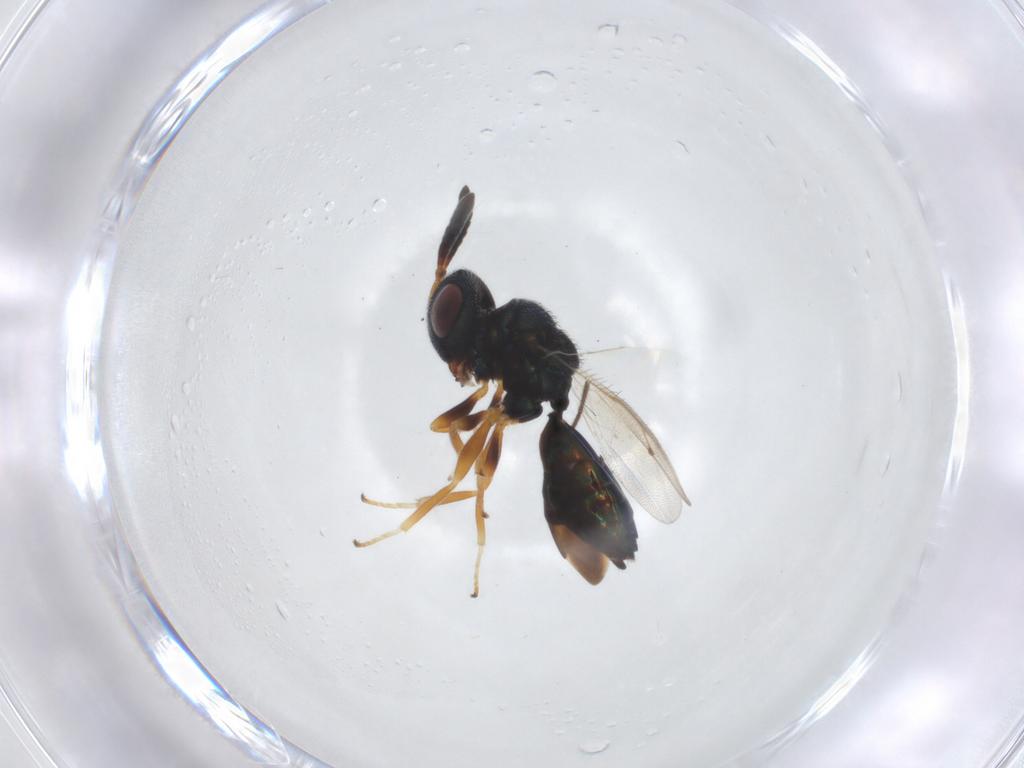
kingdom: Animalia
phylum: Arthropoda
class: Insecta
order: Hymenoptera
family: Pteromalidae
